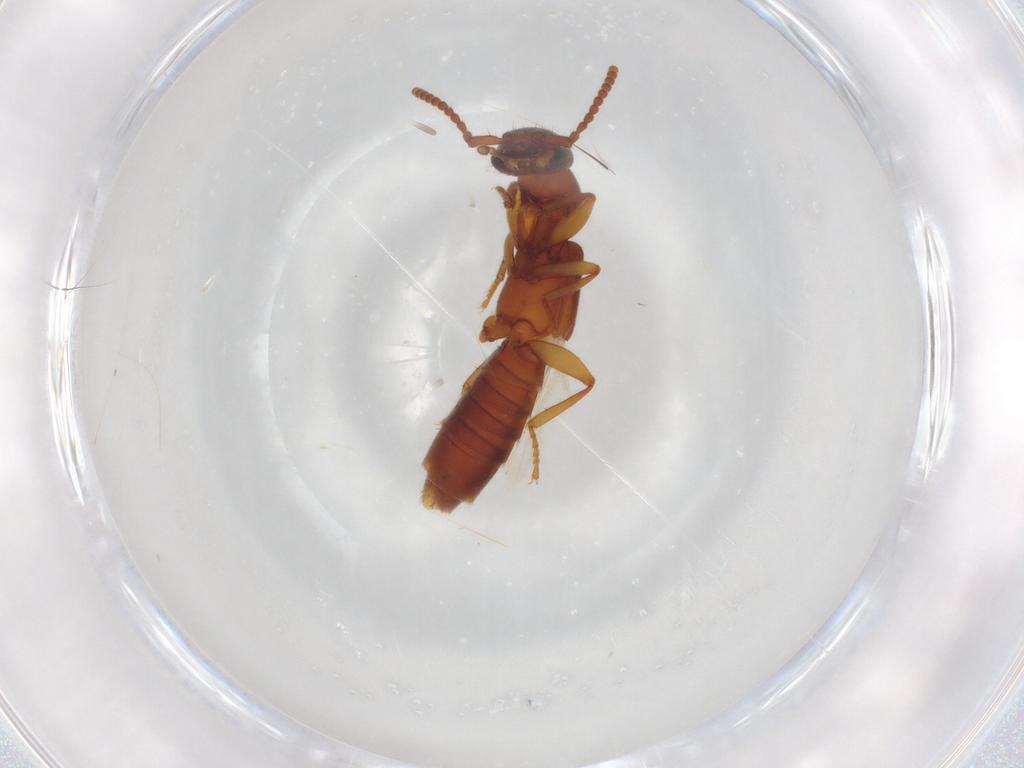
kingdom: Animalia
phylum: Arthropoda
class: Insecta
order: Coleoptera
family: Staphylinidae
